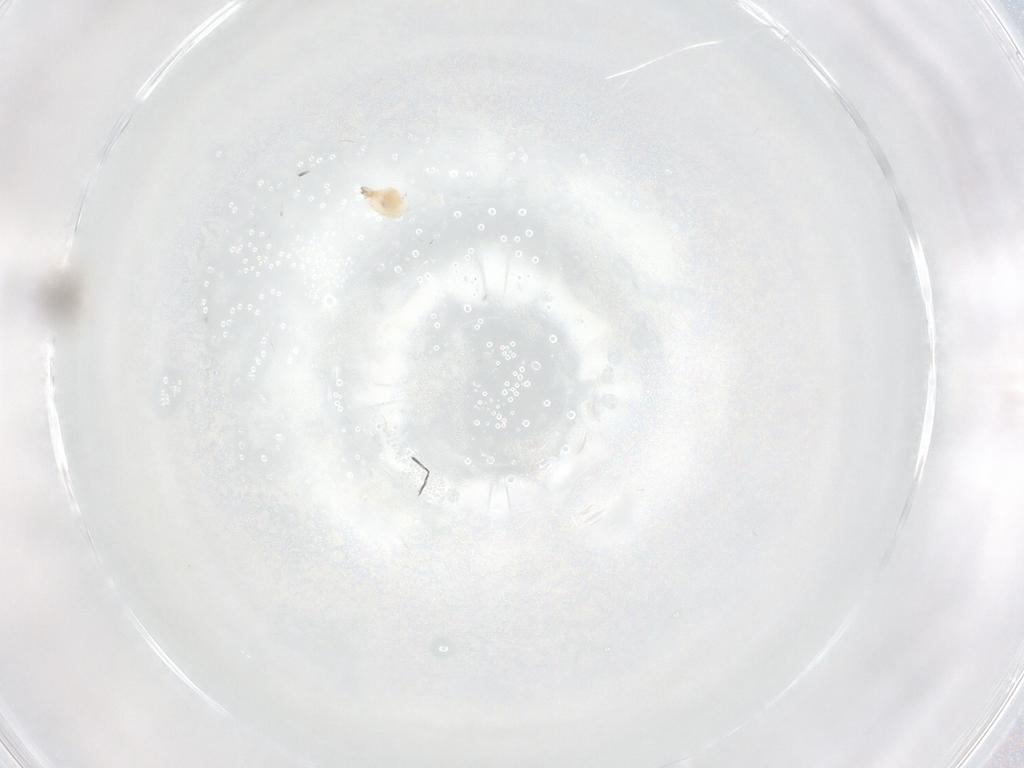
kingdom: Animalia
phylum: Arthropoda
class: Insecta
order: Diptera
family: Cecidomyiidae
